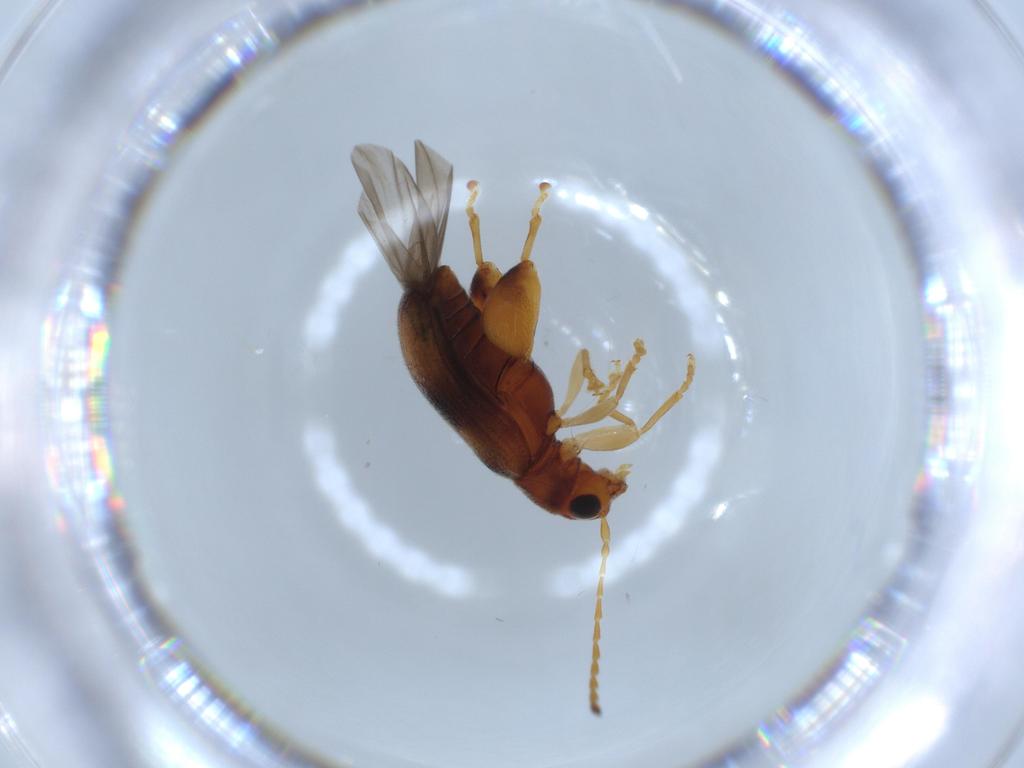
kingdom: Animalia
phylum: Arthropoda
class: Insecta
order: Coleoptera
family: Chrysomelidae
